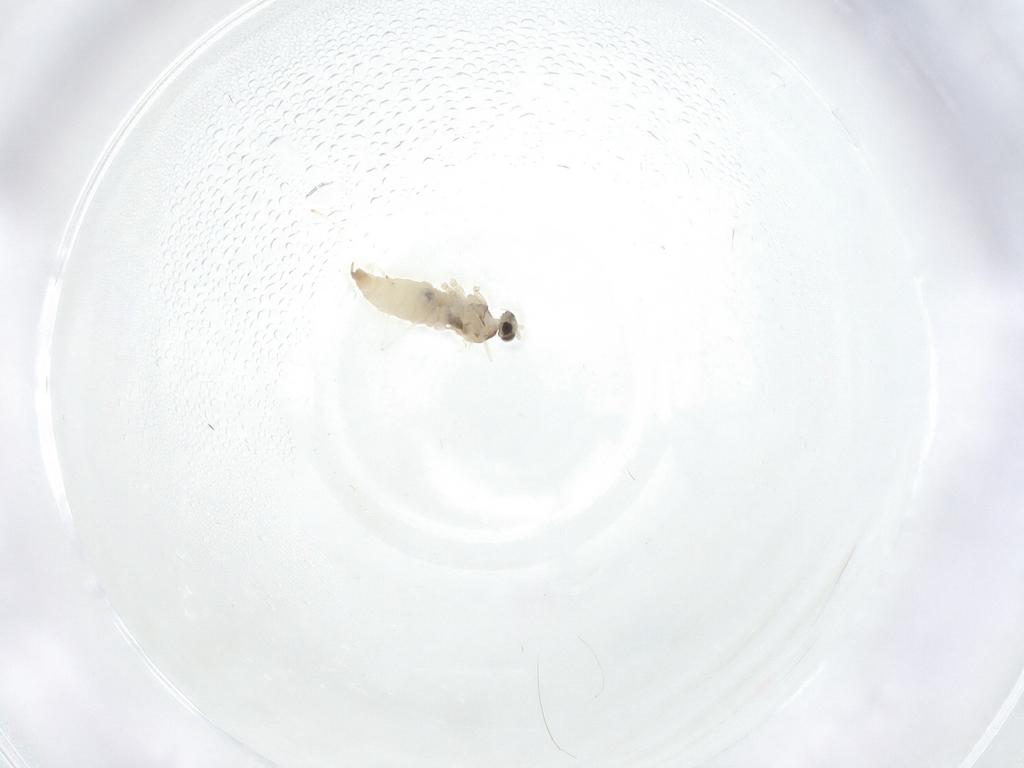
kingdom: Animalia
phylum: Arthropoda
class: Insecta
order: Diptera
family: Cecidomyiidae
